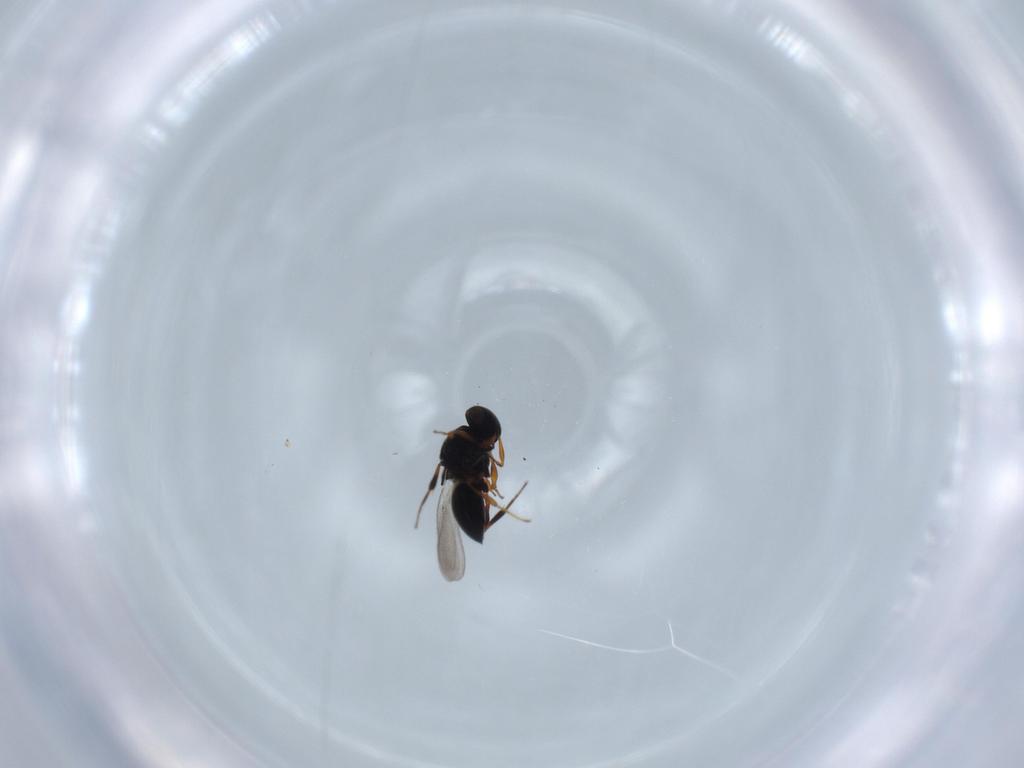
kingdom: Animalia
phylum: Arthropoda
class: Insecta
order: Hymenoptera
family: Platygastridae
